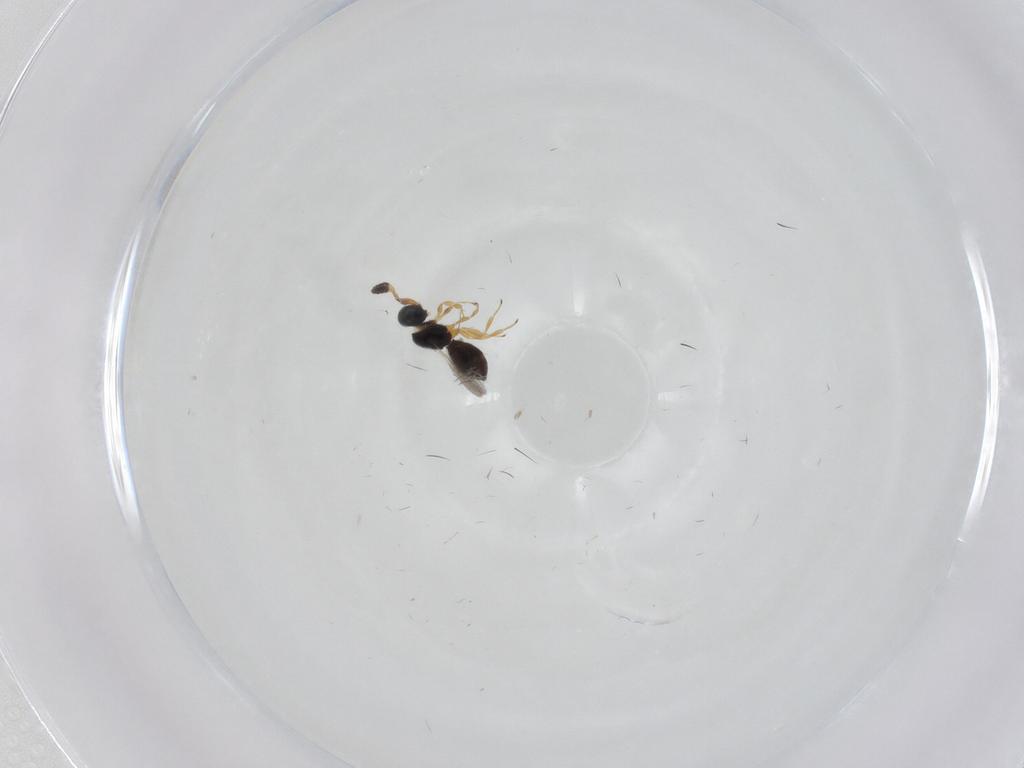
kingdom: Animalia
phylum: Arthropoda
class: Insecta
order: Hymenoptera
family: Scelionidae
